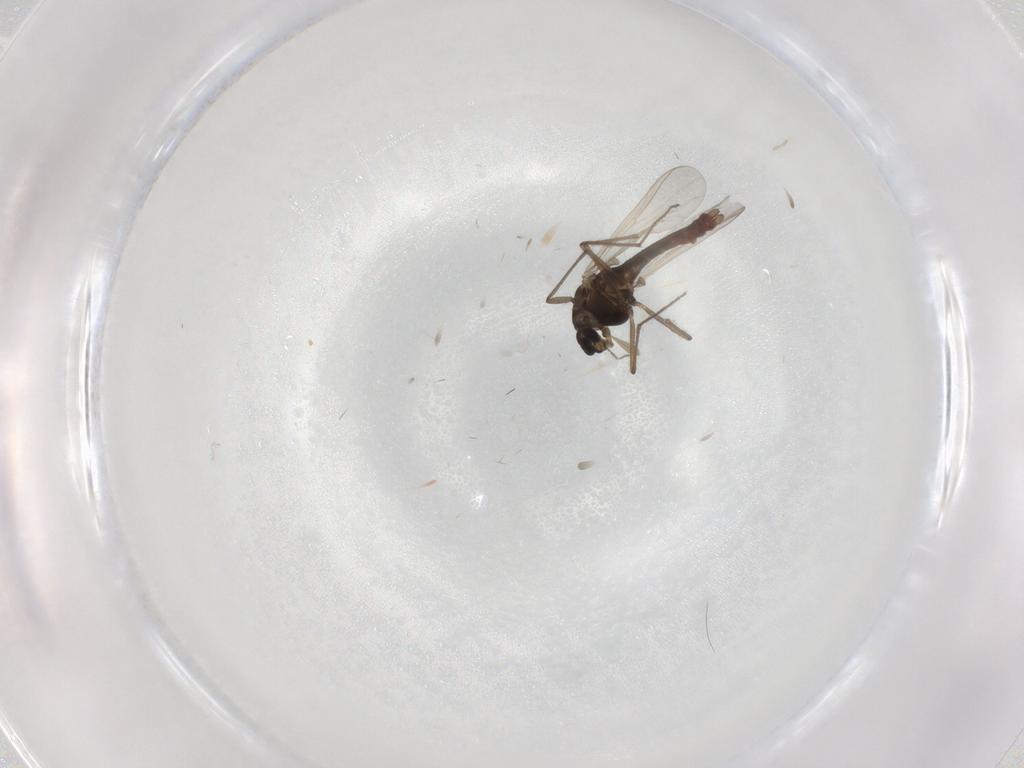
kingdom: Animalia
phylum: Arthropoda
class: Insecta
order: Diptera
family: Chironomidae
